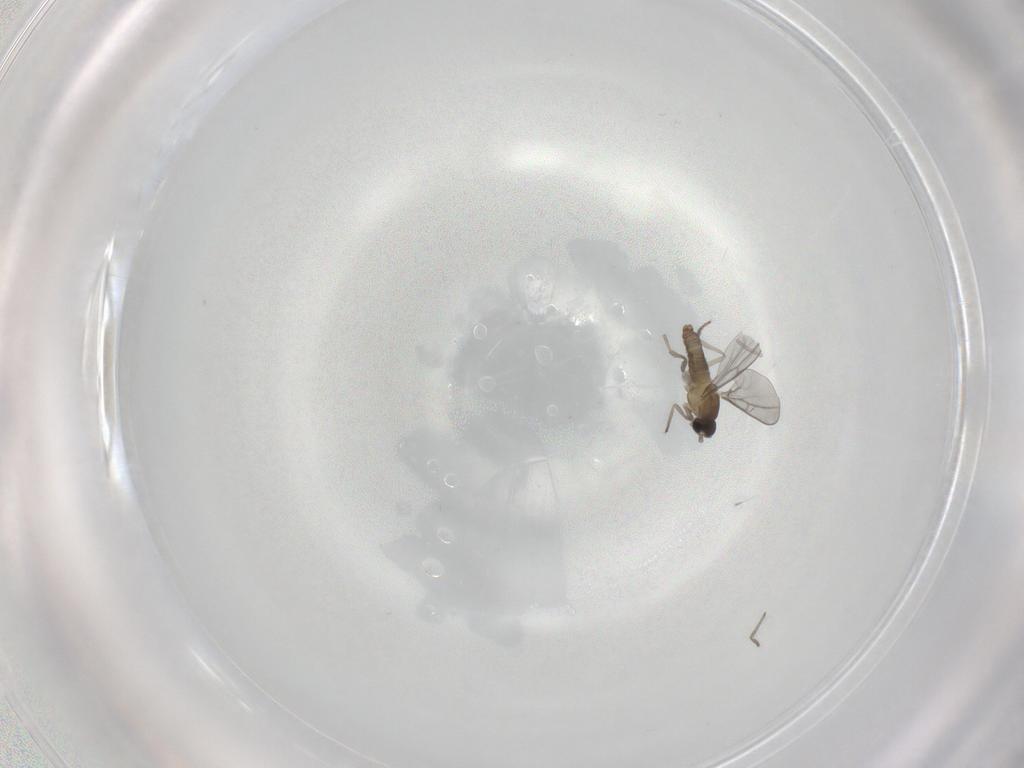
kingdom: Animalia
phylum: Arthropoda
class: Insecta
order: Diptera
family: Cecidomyiidae
